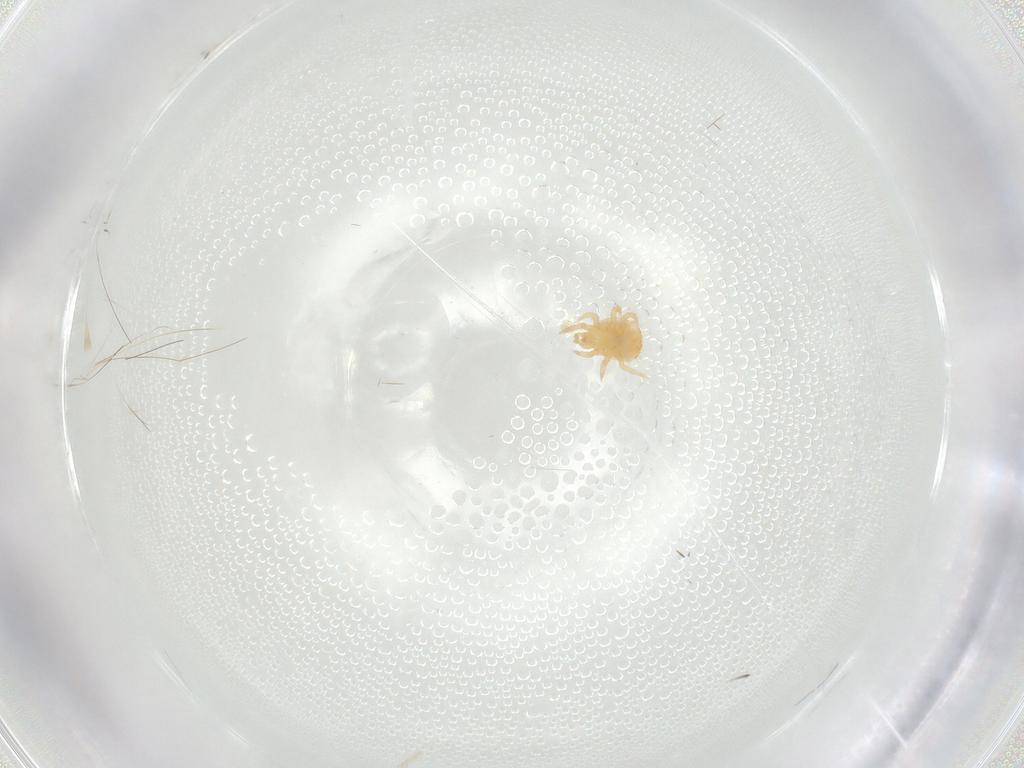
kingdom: Animalia
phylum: Arthropoda
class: Arachnida
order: Mesostigmata
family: Sejidae
